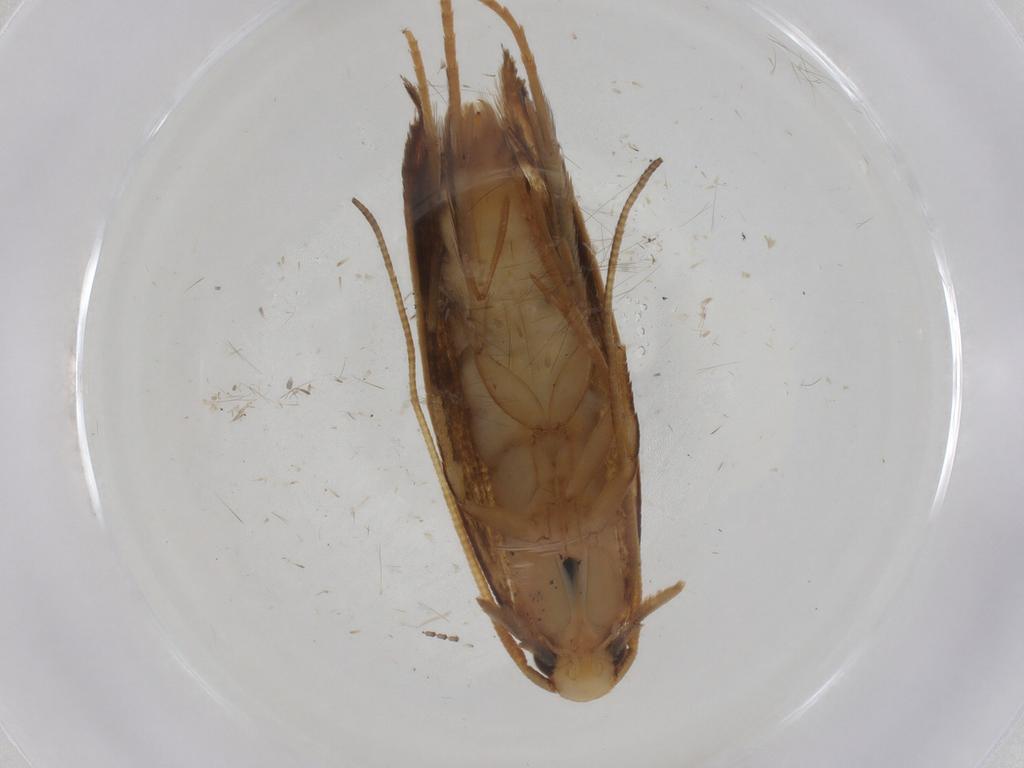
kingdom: Animalia
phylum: Arthropoda
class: Insecta
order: Lepidoptera
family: Tineidae
